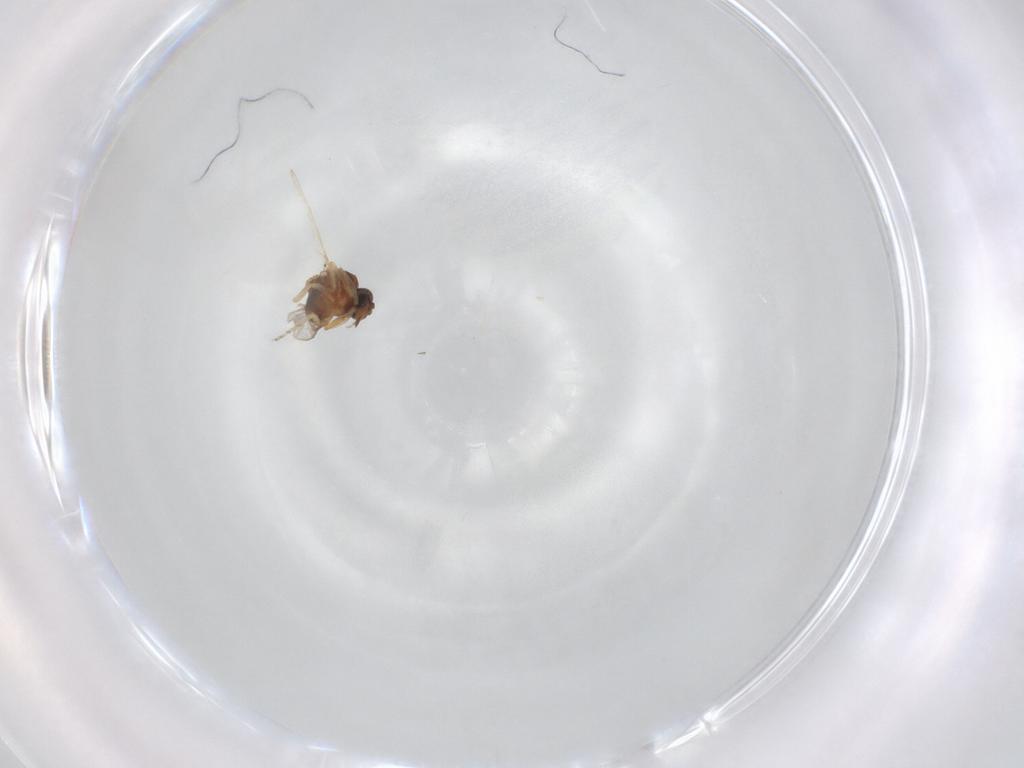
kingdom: Animalia
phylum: Arthropoda
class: Insecta
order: Diptera
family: Ceratopogonidae
